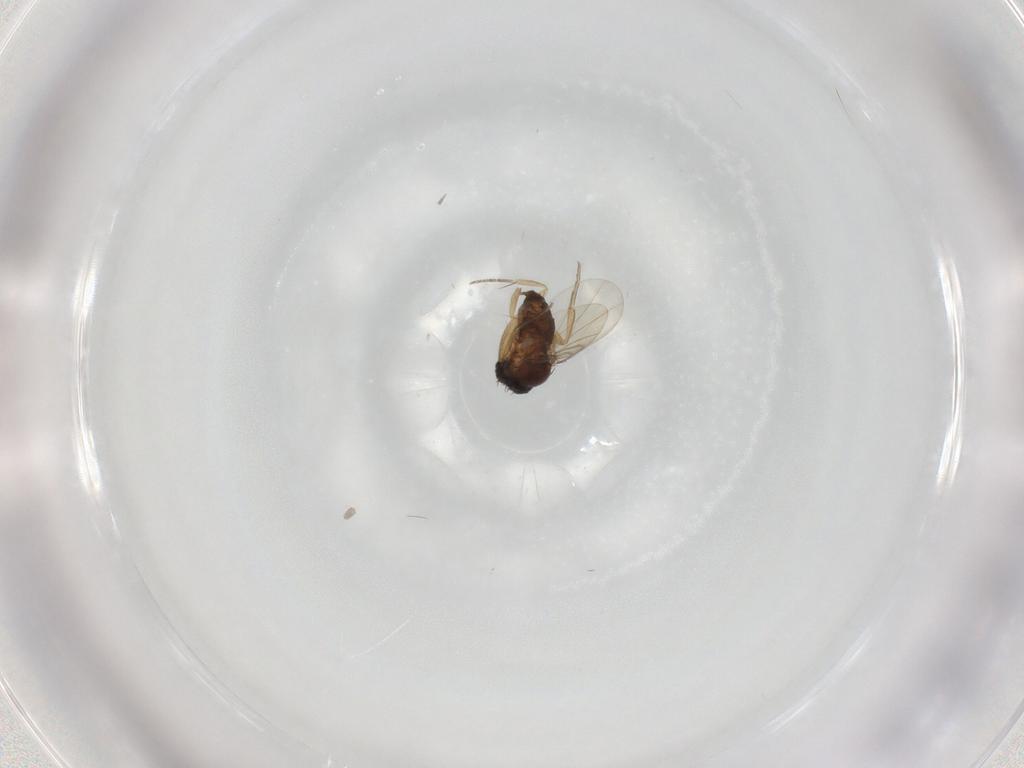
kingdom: Animalia
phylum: Arthropoda
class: Insecta
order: Diptera
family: Phoridae
